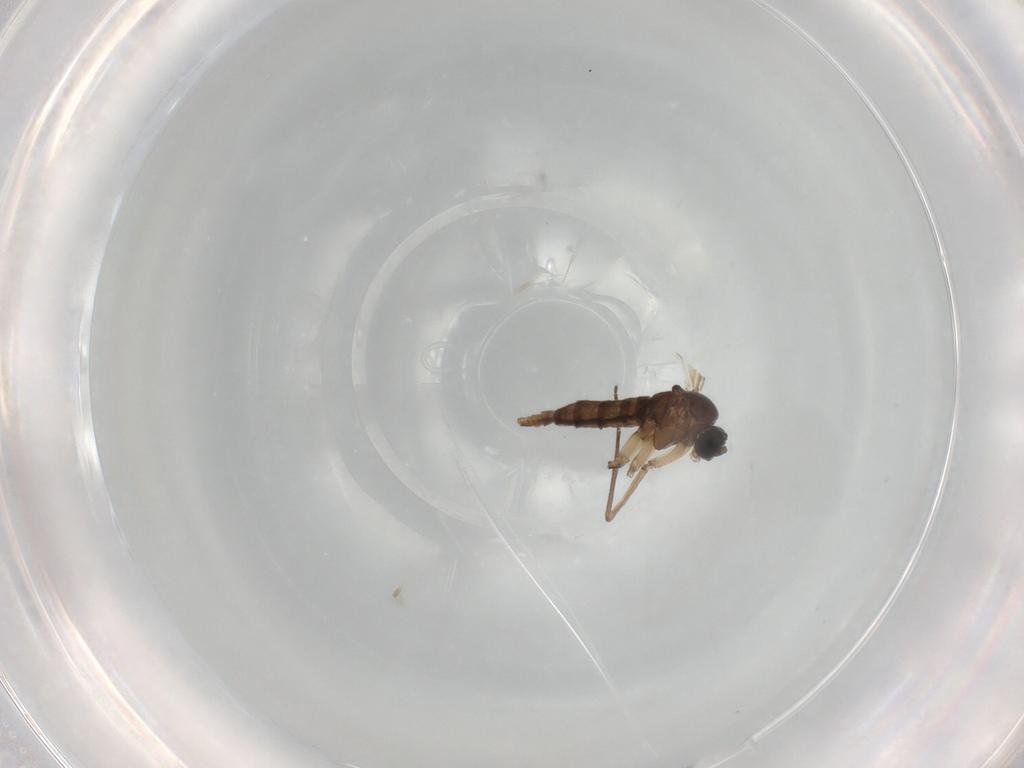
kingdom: Animalia
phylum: Arthropoda
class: Insecta
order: Diptera
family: Sciaridae
